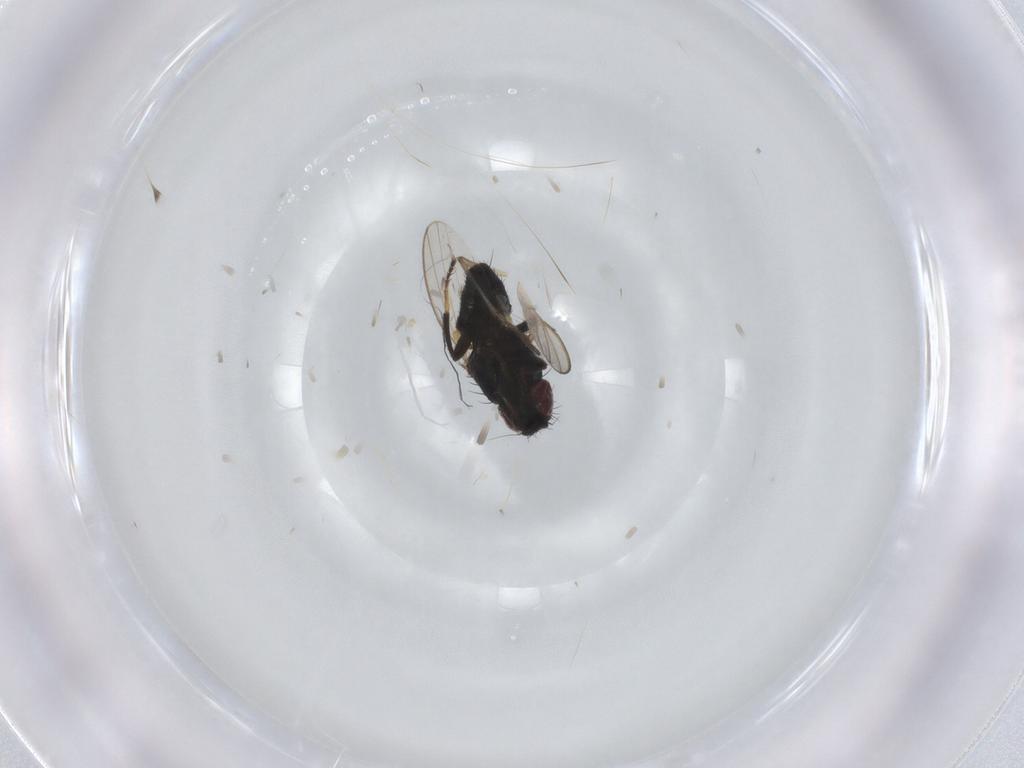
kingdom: Animalia
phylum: Arthropoda
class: Insecta
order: Diptera
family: Milichiidae
